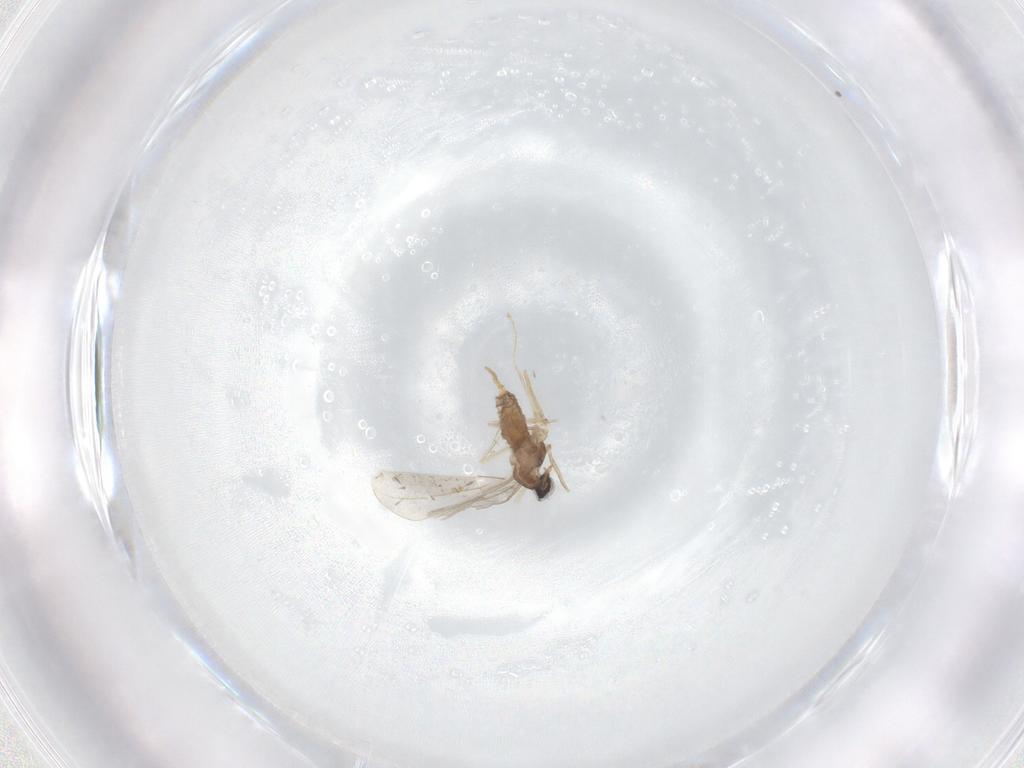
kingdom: Animalia
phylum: Arthropoda
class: Insecta
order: Diptera
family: Cecidomyiidae
